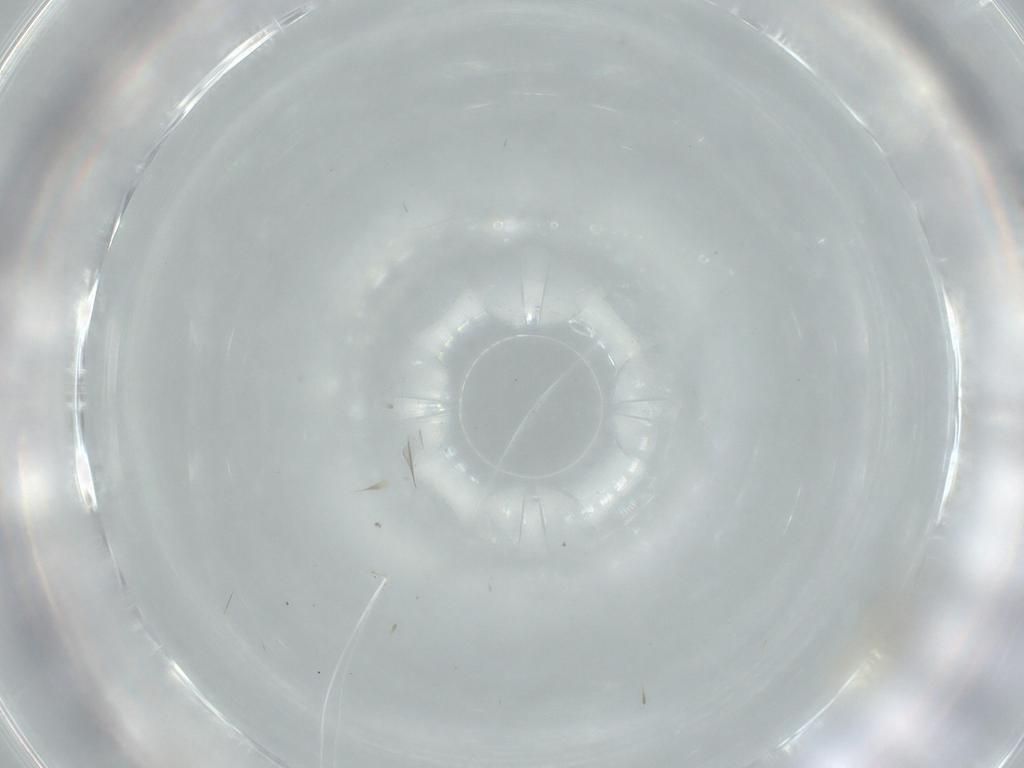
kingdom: Animalia
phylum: Arthropoda
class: Insecta
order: Diptera
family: Cecidomyiidae
